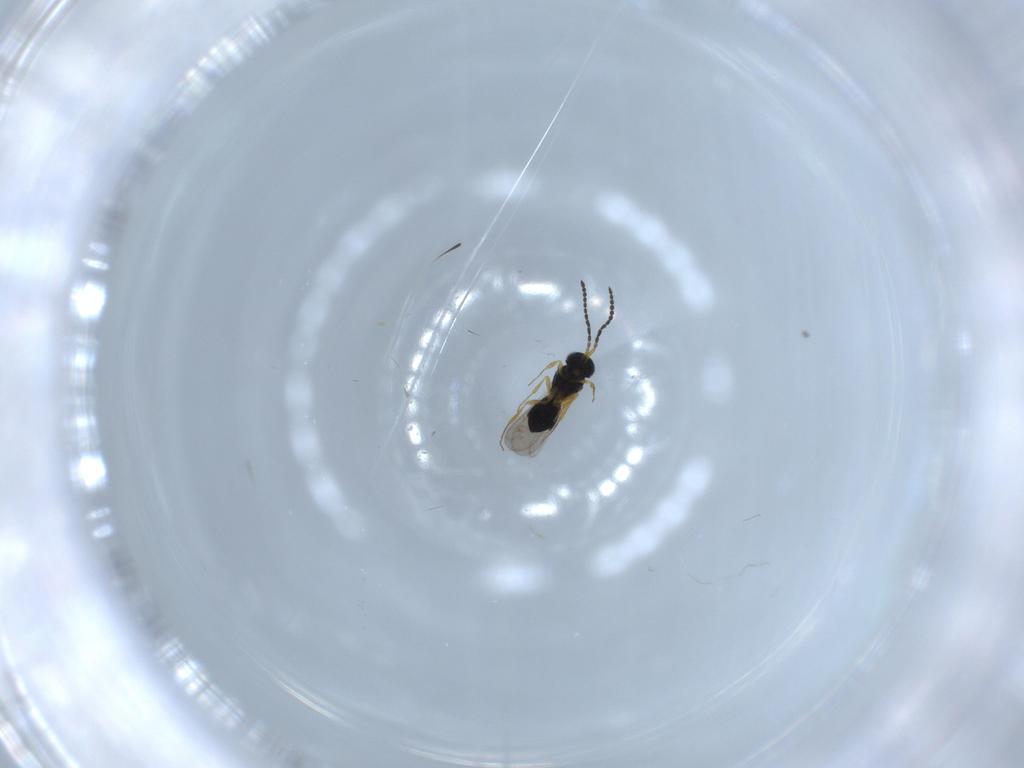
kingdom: Animalia
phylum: Arthropoda
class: Insecta
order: Hymenoptera
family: Scelionidae
